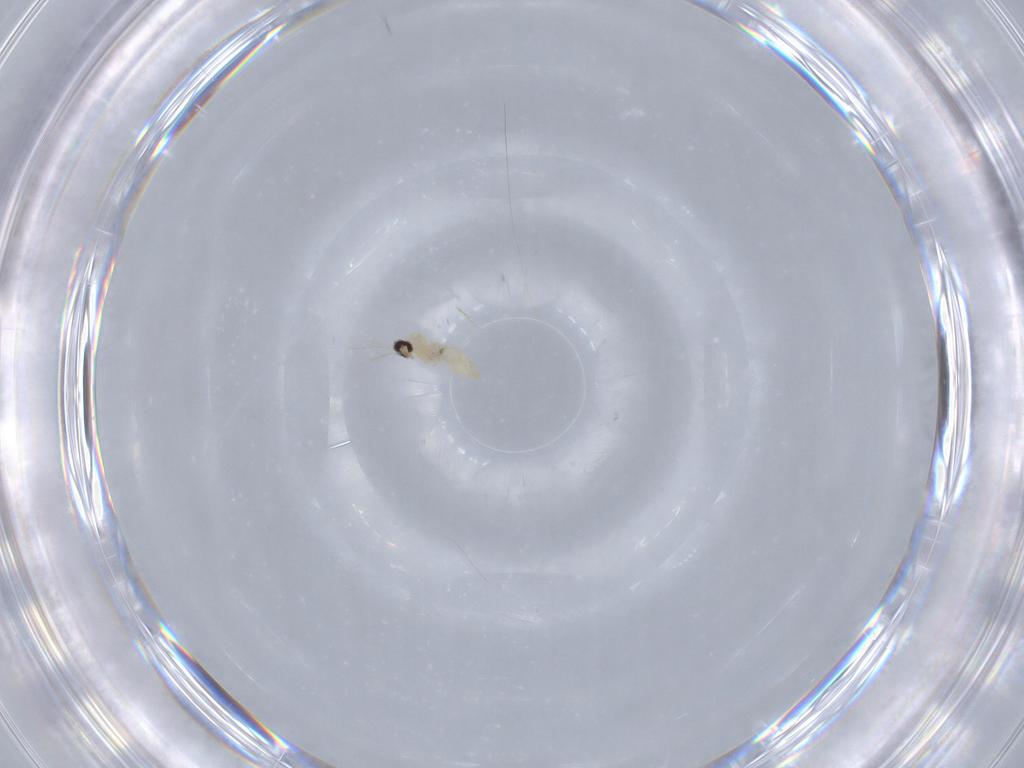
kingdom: Animalia
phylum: Arthropoda
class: Insecta
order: Diptera
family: Cecidomyiidae
